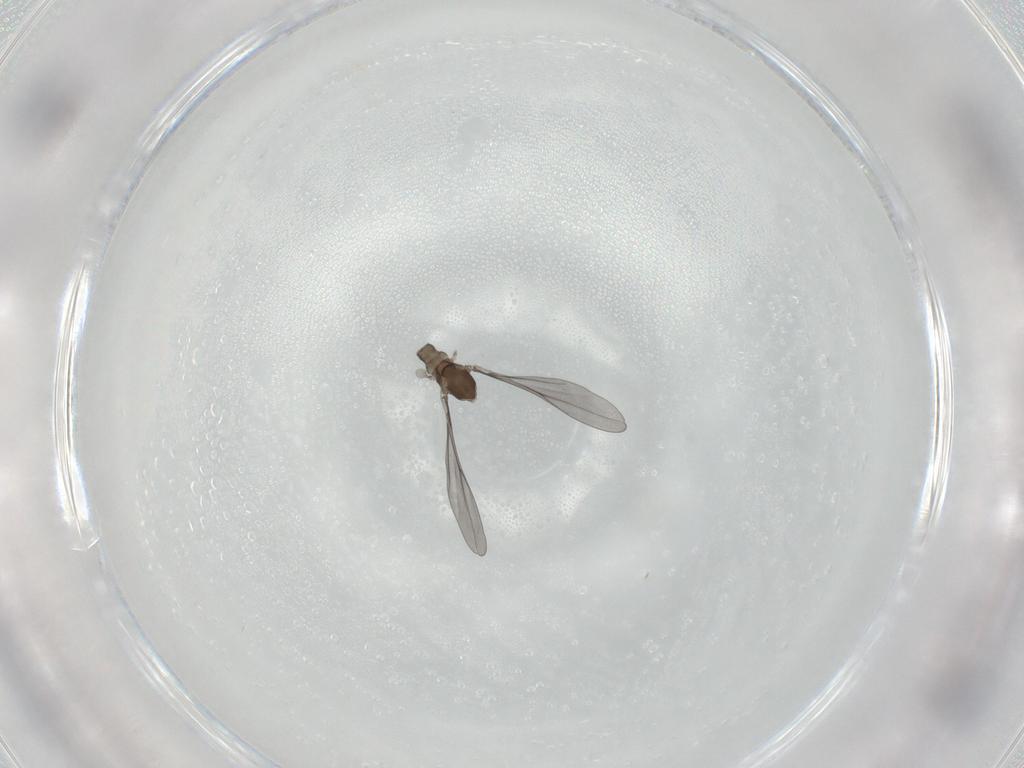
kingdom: Animalia
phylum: Arthropoda
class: Insecta
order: Diptera
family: Cecidomyiidae
